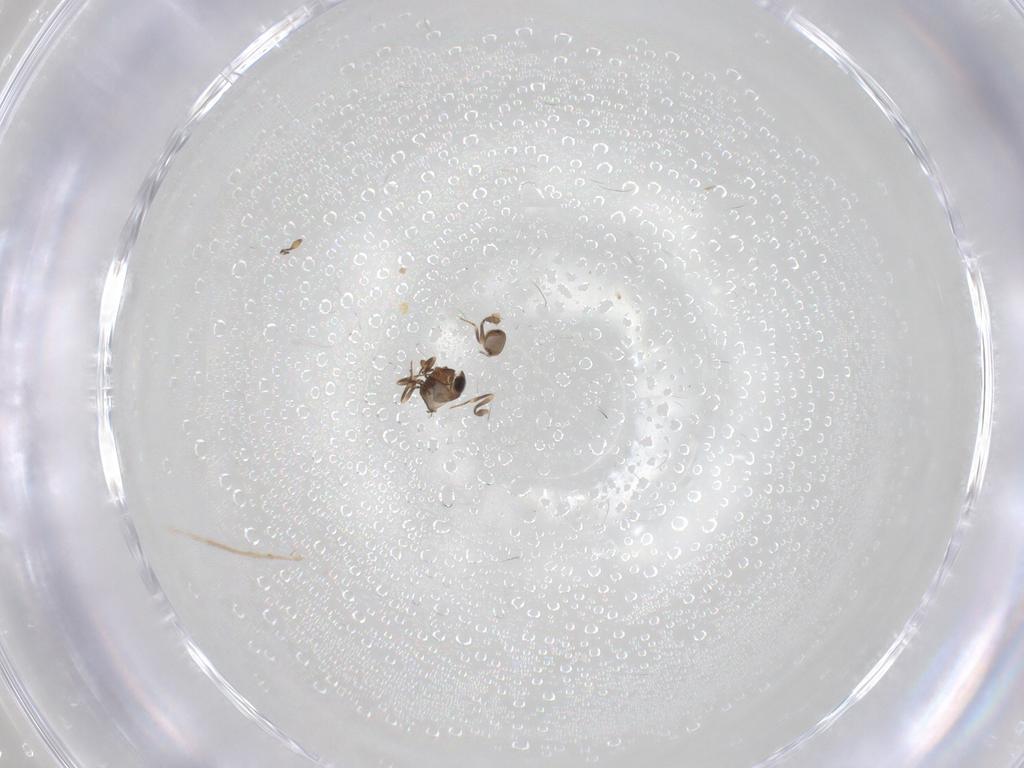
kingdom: Animalia
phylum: Arthropoda
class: Insecta
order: Hymenoptera
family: Scelionidae
